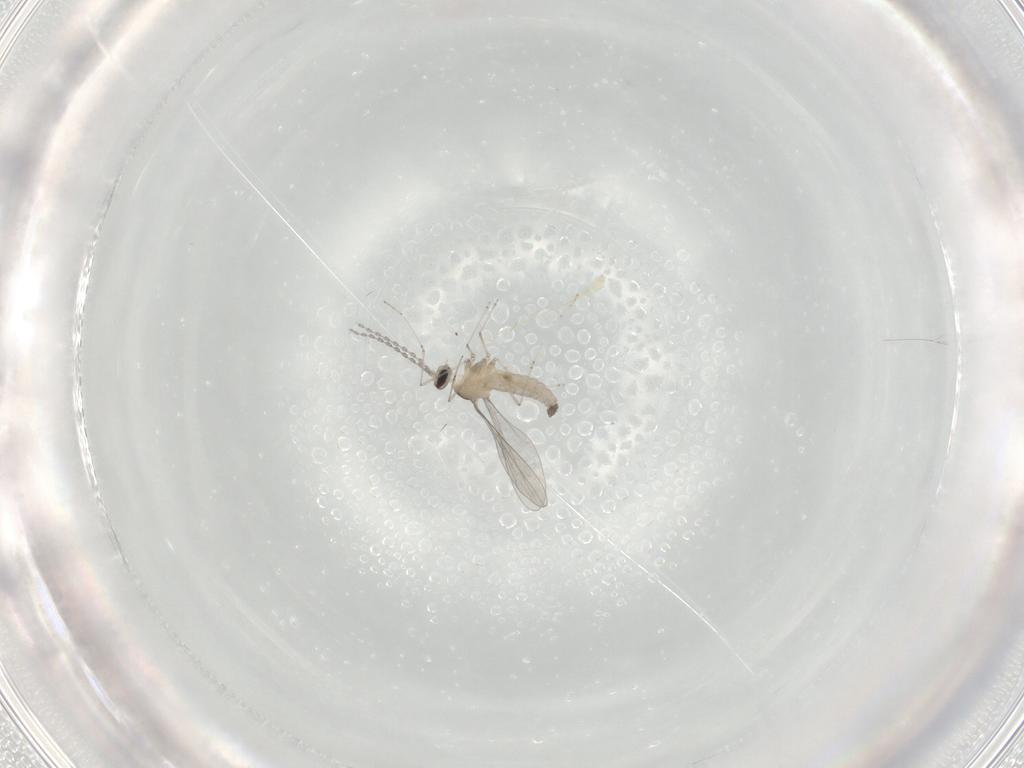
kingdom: Animalia
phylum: Arthropoda
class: Insecta
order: Diptera
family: Cecidomyiidae
